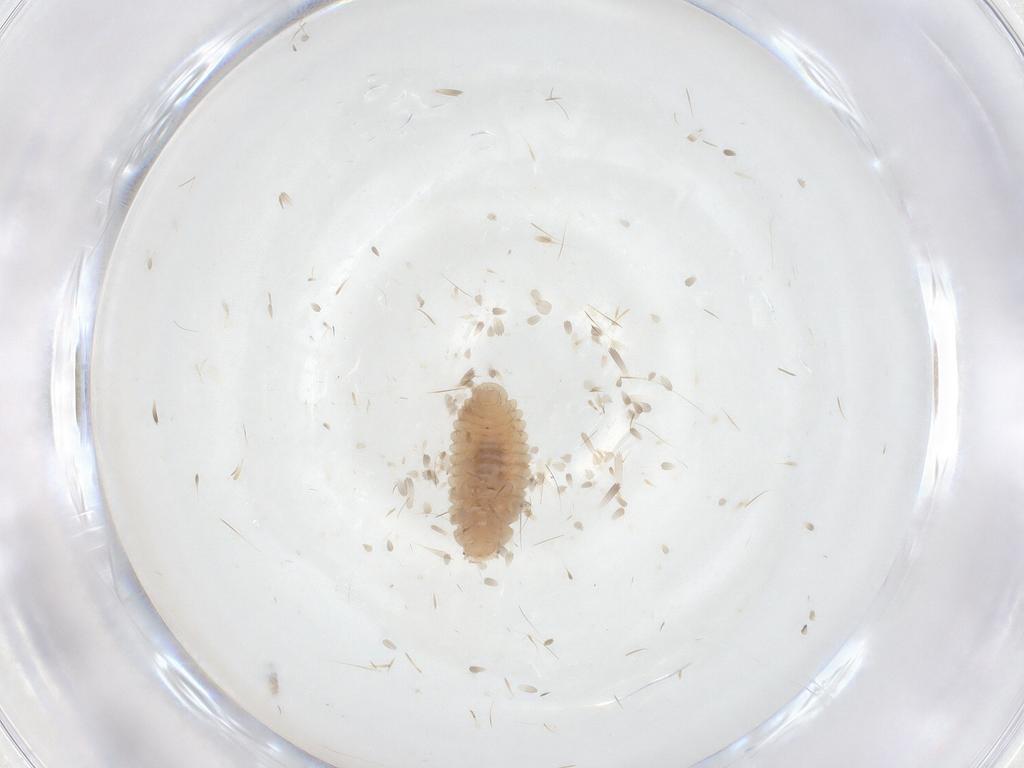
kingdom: Animalia
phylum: Arthropoda
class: Insecta
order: Coleoptera
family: Coccinellidae
